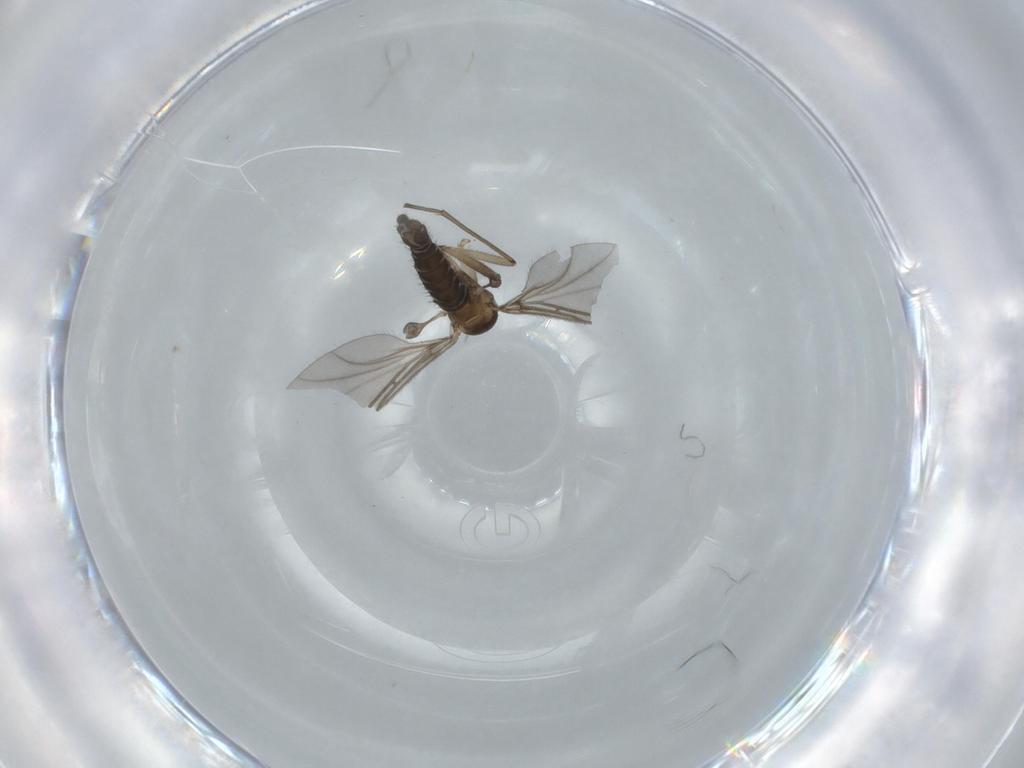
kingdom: Animalia
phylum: Arthropoda
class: Insecta
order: Diptera
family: Sciaridae
